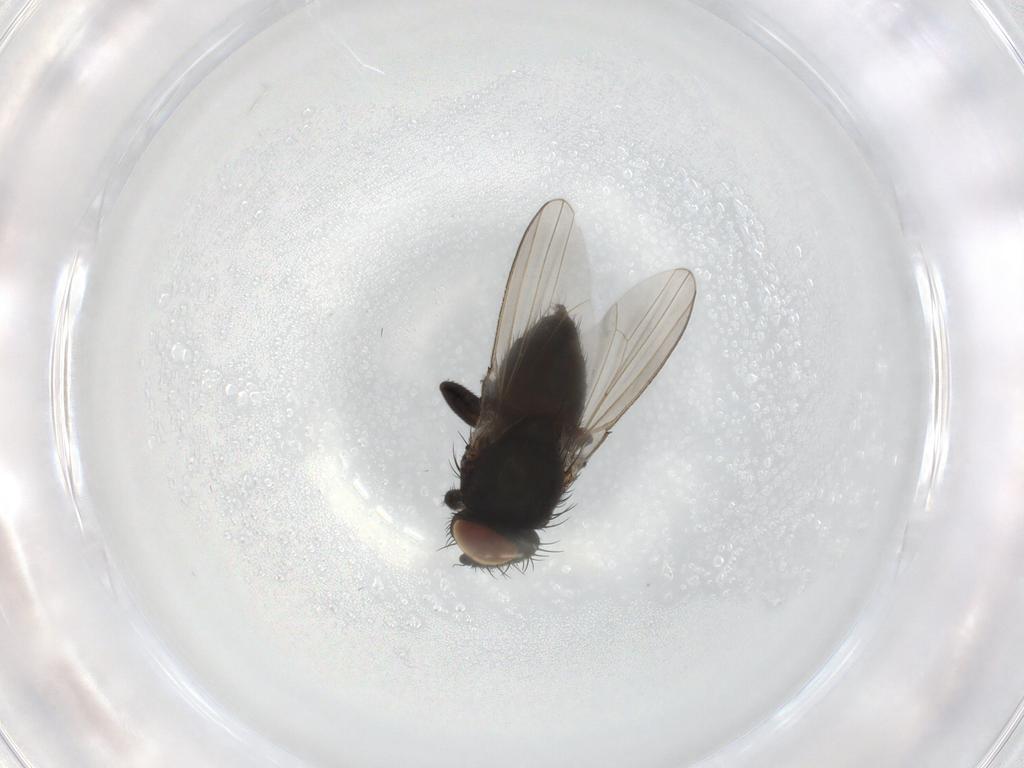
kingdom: Animalia
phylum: Arthropoda
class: Insecta
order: Diptera
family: Milichiidae
